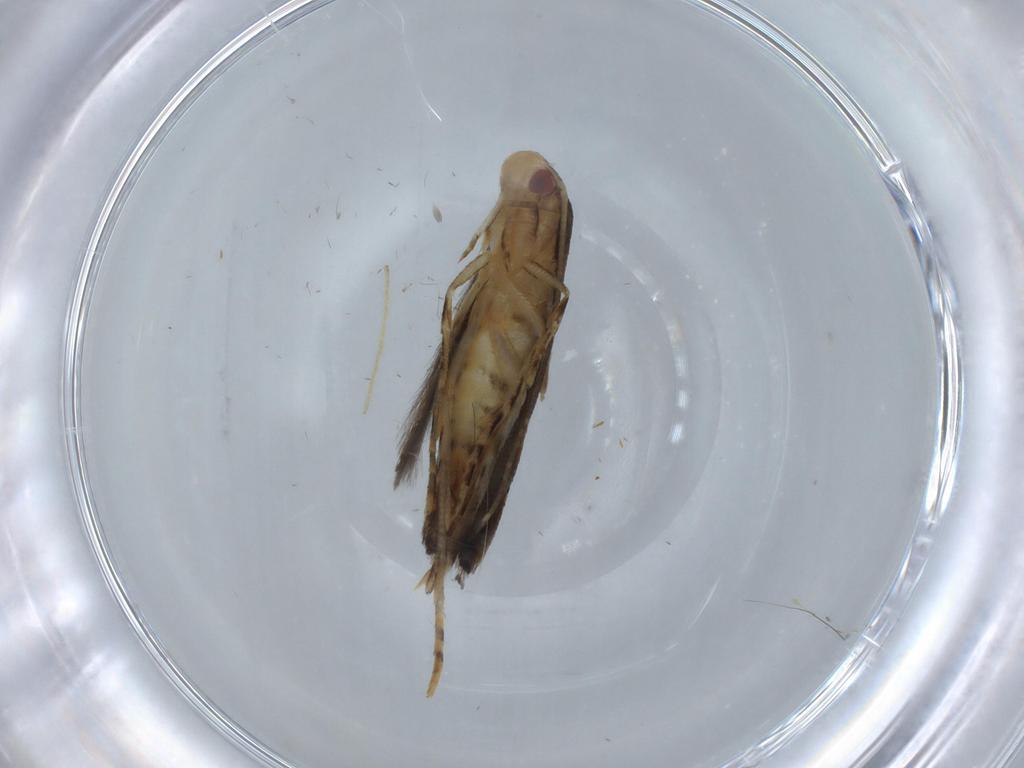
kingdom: Animalia
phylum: Arthropoda
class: Insecta
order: Lepidoptera
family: Momphidae
